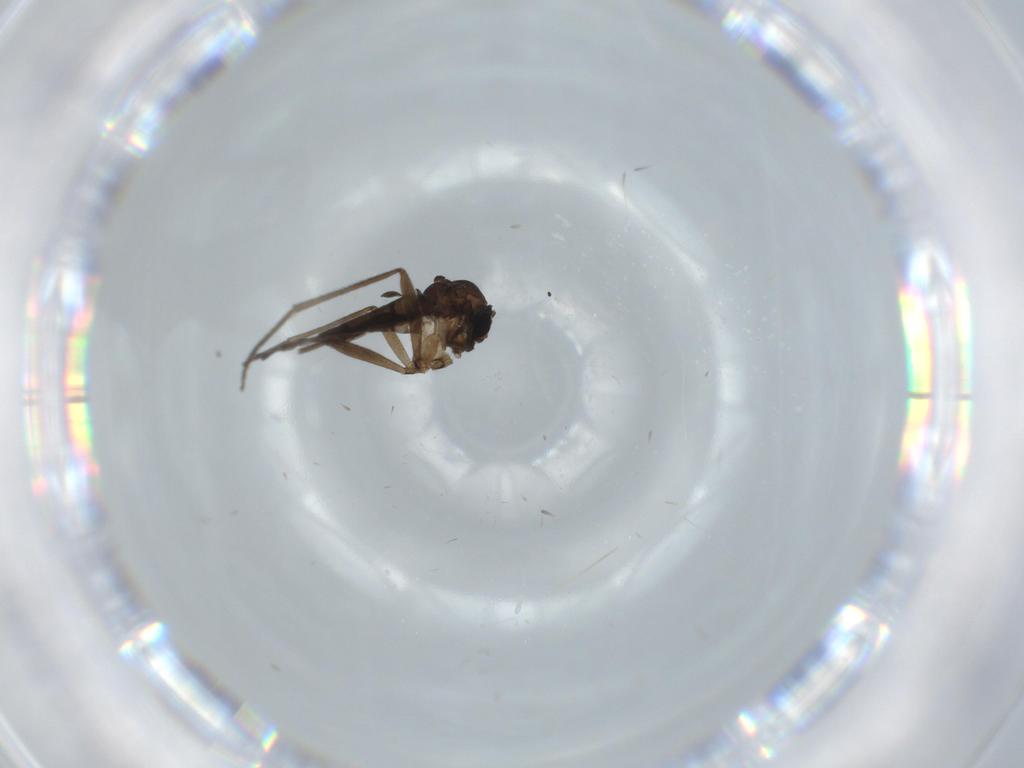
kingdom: Animalia
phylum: Arthropoda
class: Insecta
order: Diptera
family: Sciaridae
